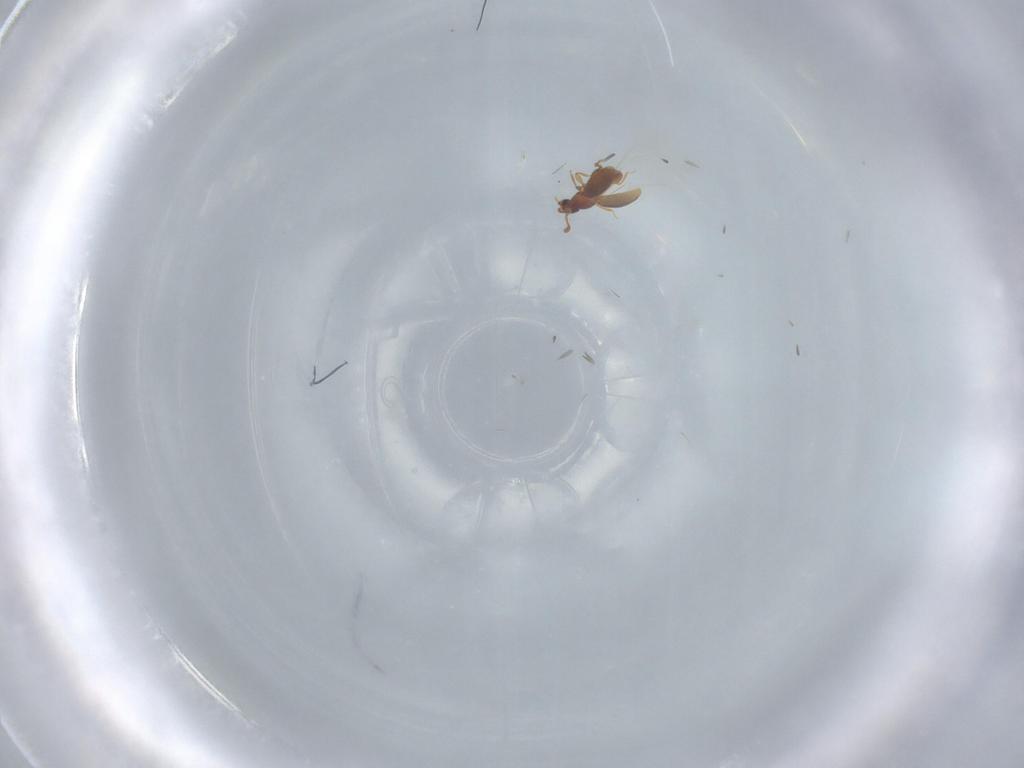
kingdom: Animalia
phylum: Arthropoda
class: Insecta
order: Coleoptera
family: Staphylinidae
